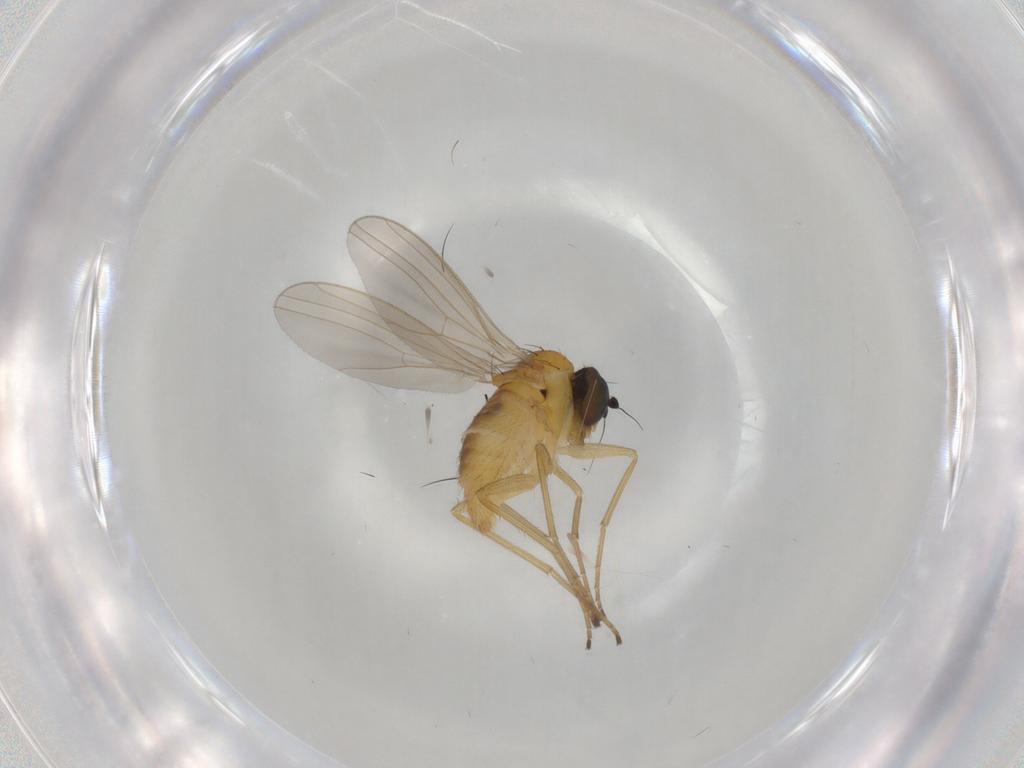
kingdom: Animalia
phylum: Arthropoda
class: Insecta
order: Diptera
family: Dolichopodidae
